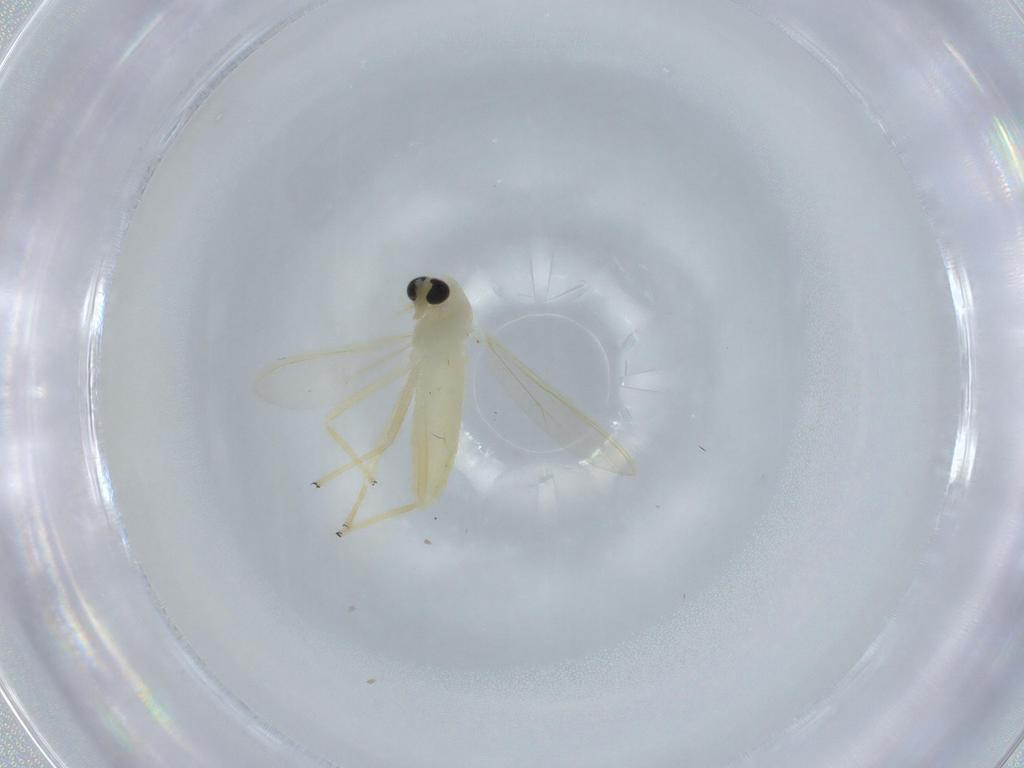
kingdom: Animalia
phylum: Arthropoda
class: Insecta
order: Diptera
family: Chironomidae
